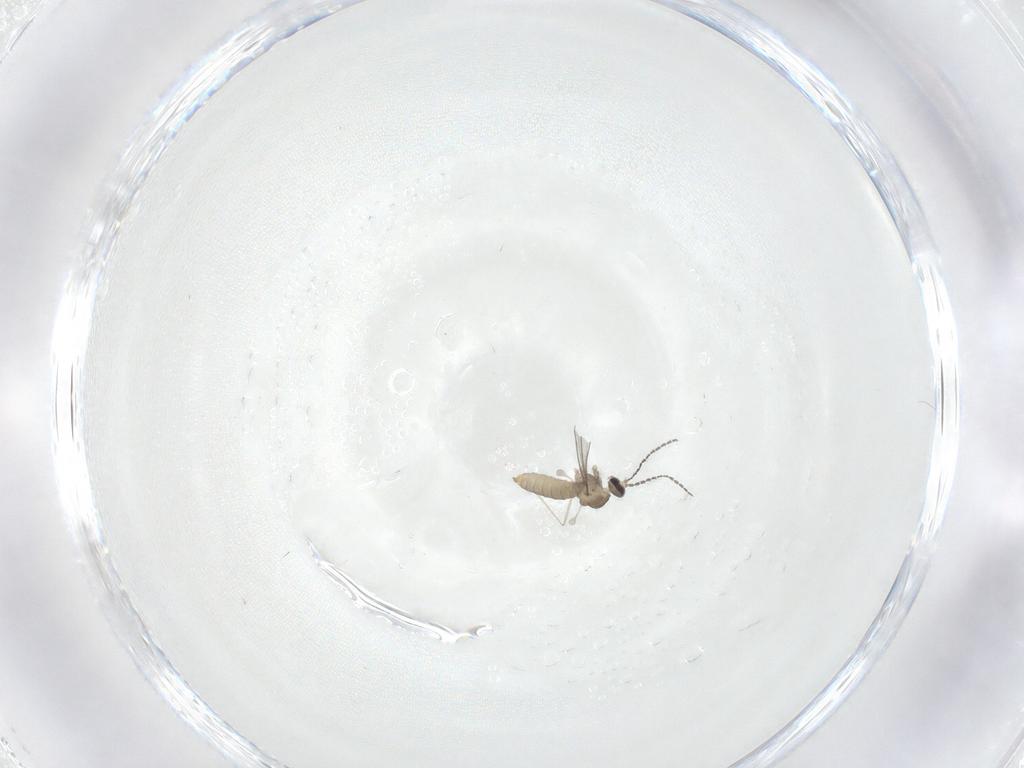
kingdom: Animalia
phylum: Arthropoda
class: Insecta
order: Diptera
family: Cecidomyiidae
